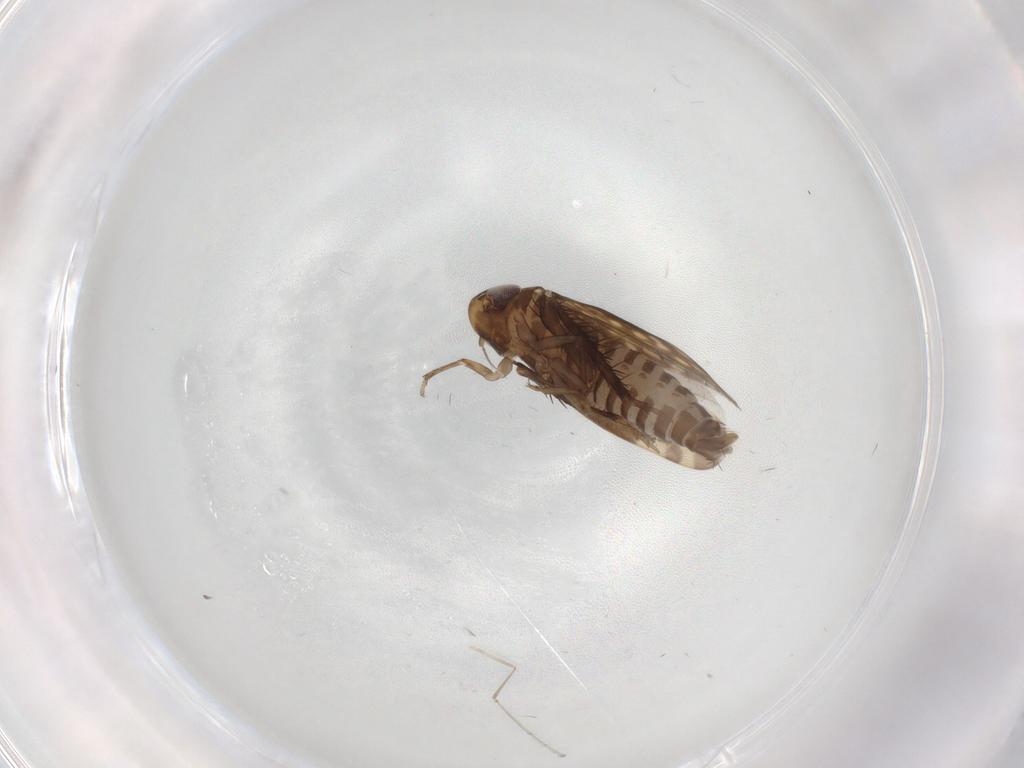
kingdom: Animalia
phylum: Arthropoda
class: Insecta
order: Hemiptera
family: Cicadellidae
